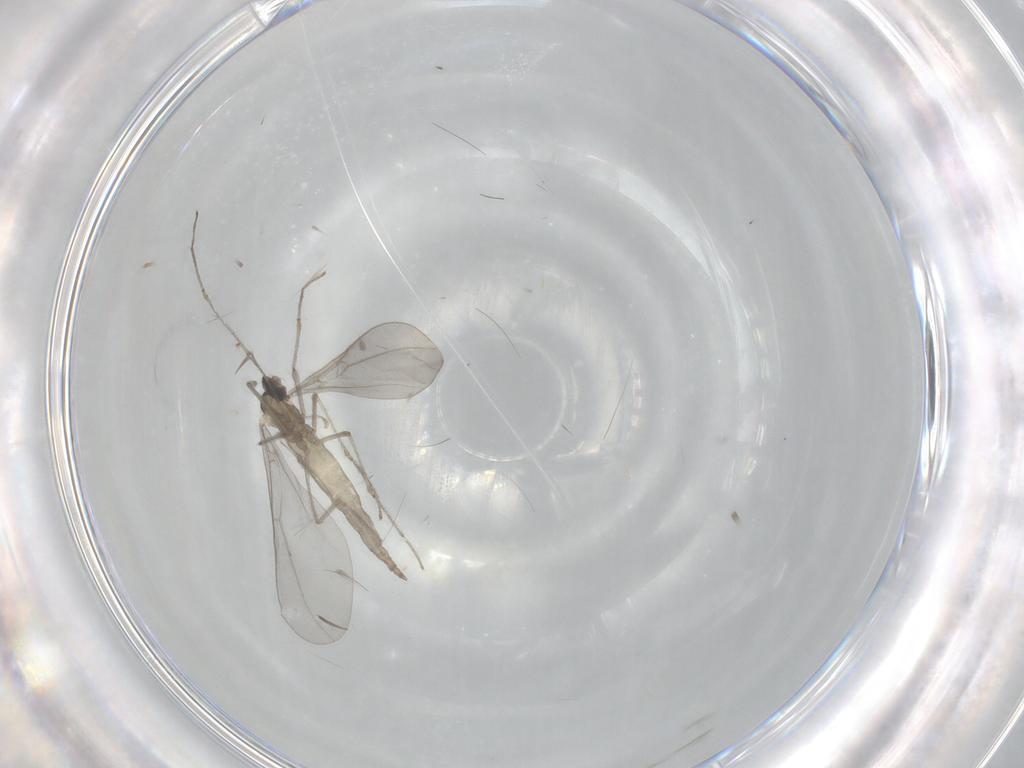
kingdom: Animalia
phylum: Arthropoda
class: Insecta
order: Diptera
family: Cecidomyiidae
